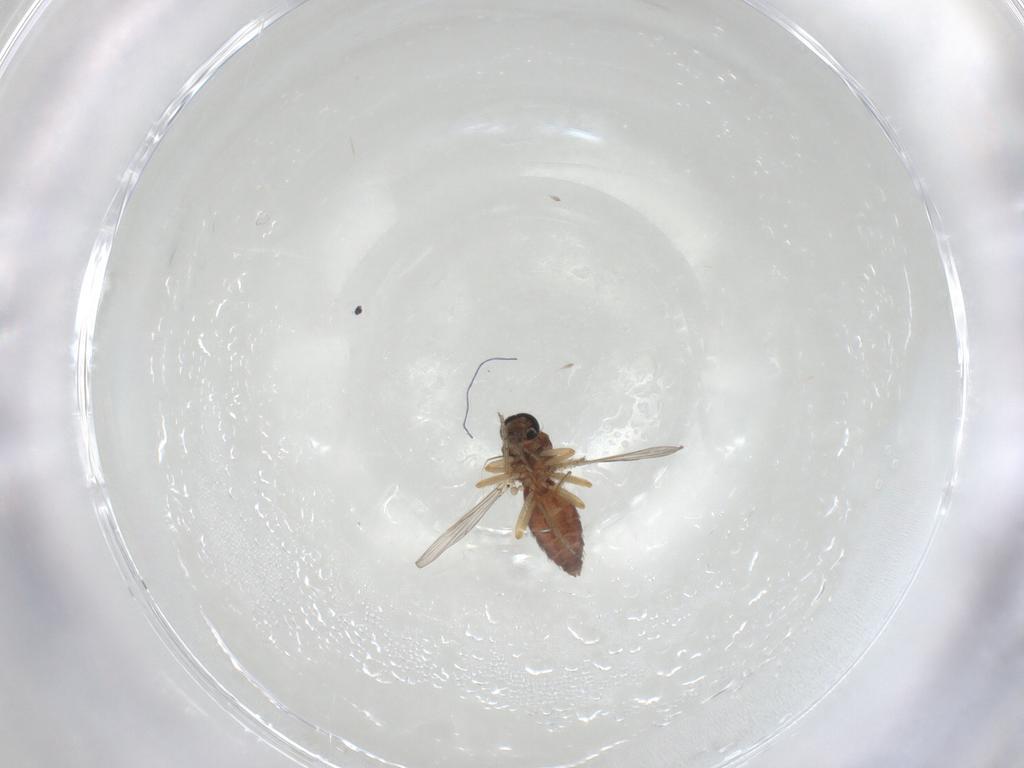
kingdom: Animalia
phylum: Arthropoda
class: Insecta
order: Diptera
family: Ceratopogonidae
